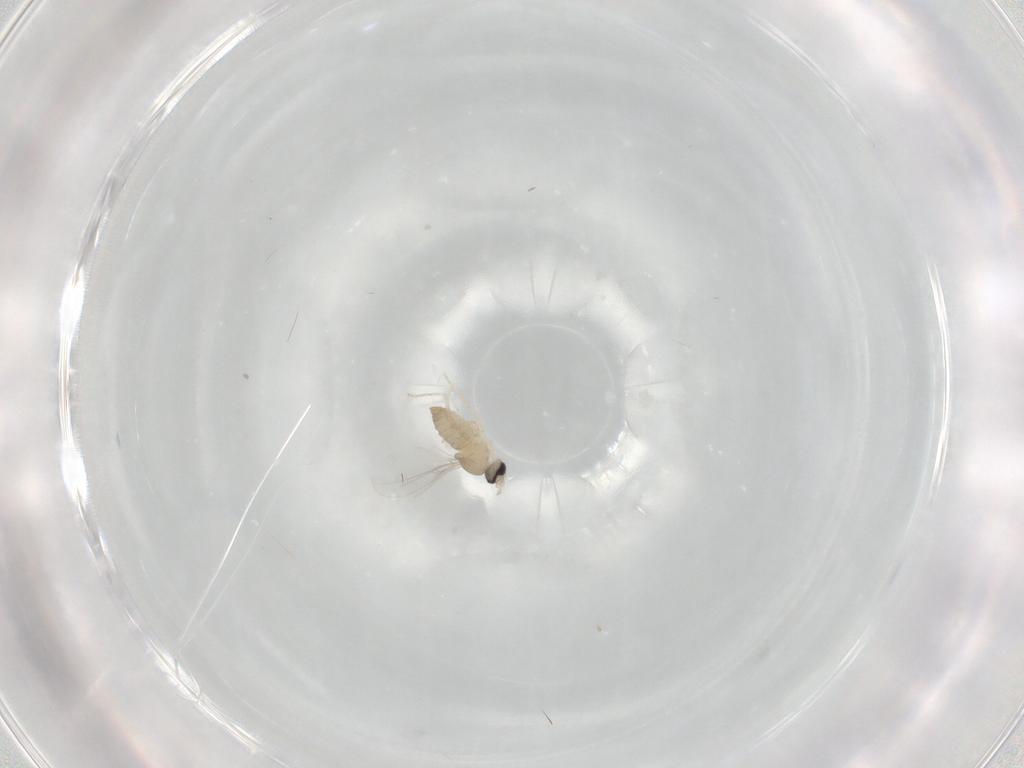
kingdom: Animalia
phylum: Arthropoda
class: Insecta
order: Diptera
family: Cecidomyiidae
